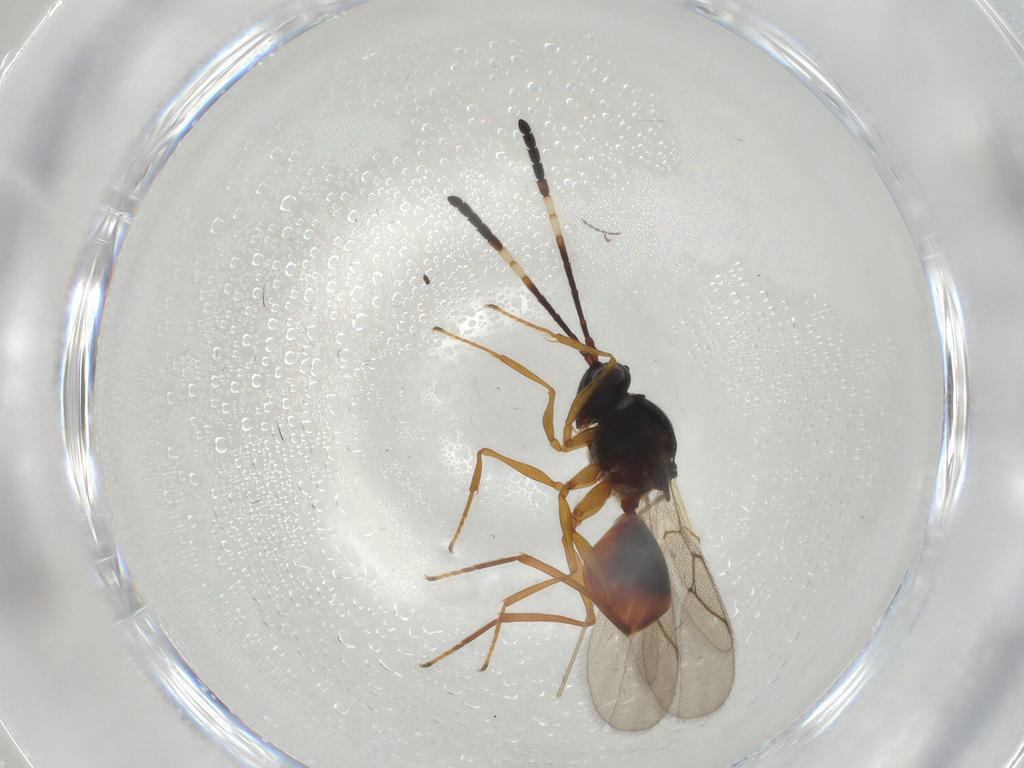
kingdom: Animalia
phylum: Arthropoda
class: Insecta
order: Hymenoptera
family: Figitidae
